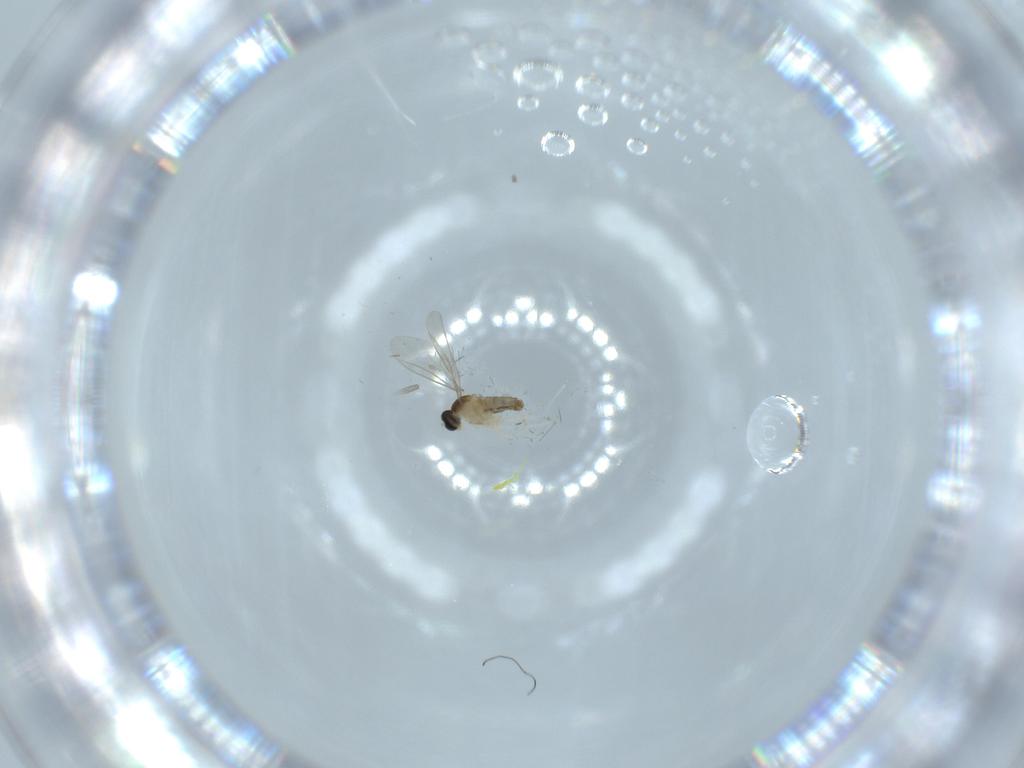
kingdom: Animalia
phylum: Arthropoda
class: Insecta
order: Diptera
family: Cecidomyiidae
